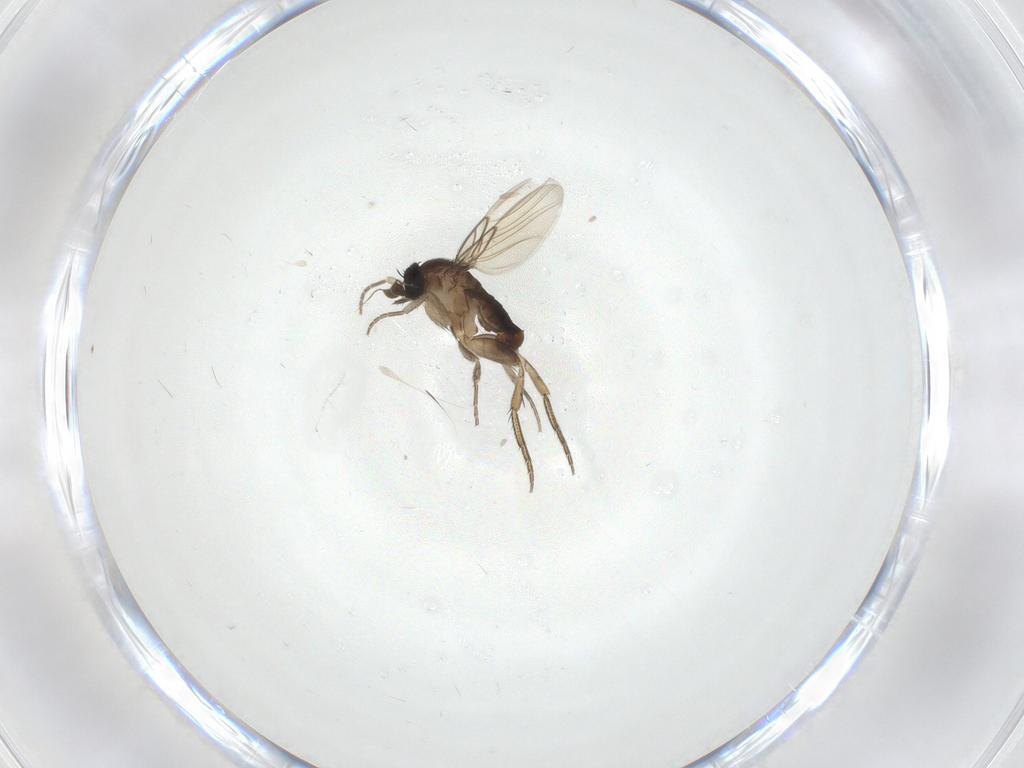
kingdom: Animalia
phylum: Arthropoda
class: Insecta
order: Diptera
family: Phoridae
